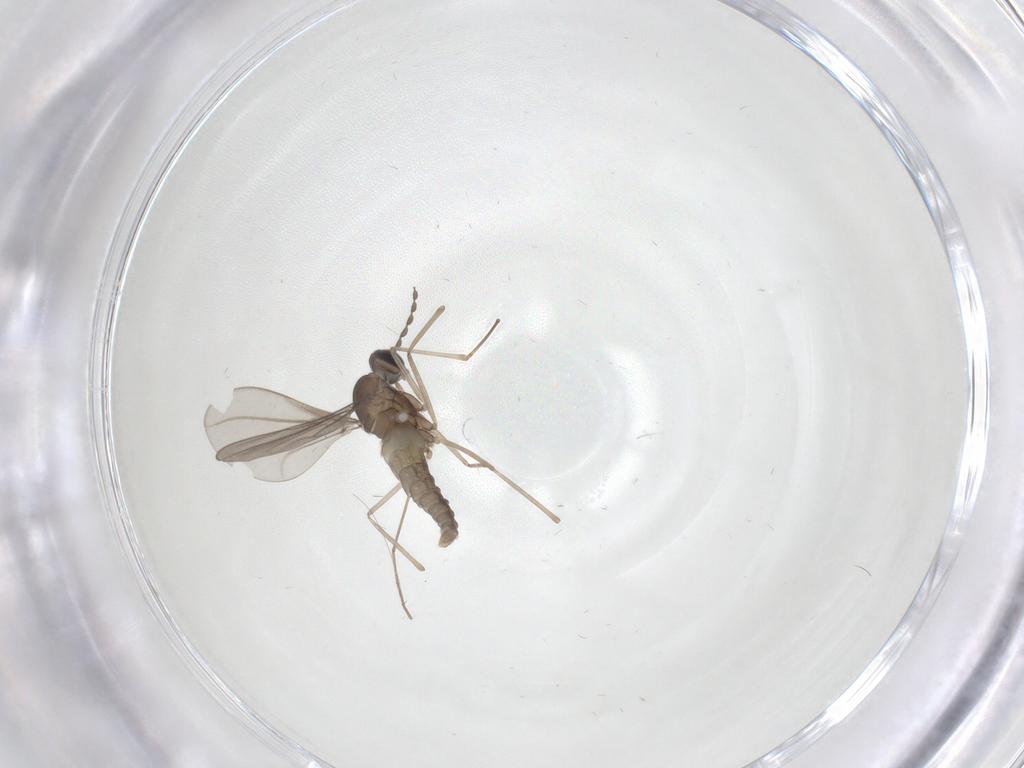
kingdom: Animalia
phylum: Arthropoda
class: Insecta
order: Diptera
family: Cecidomyiidae
